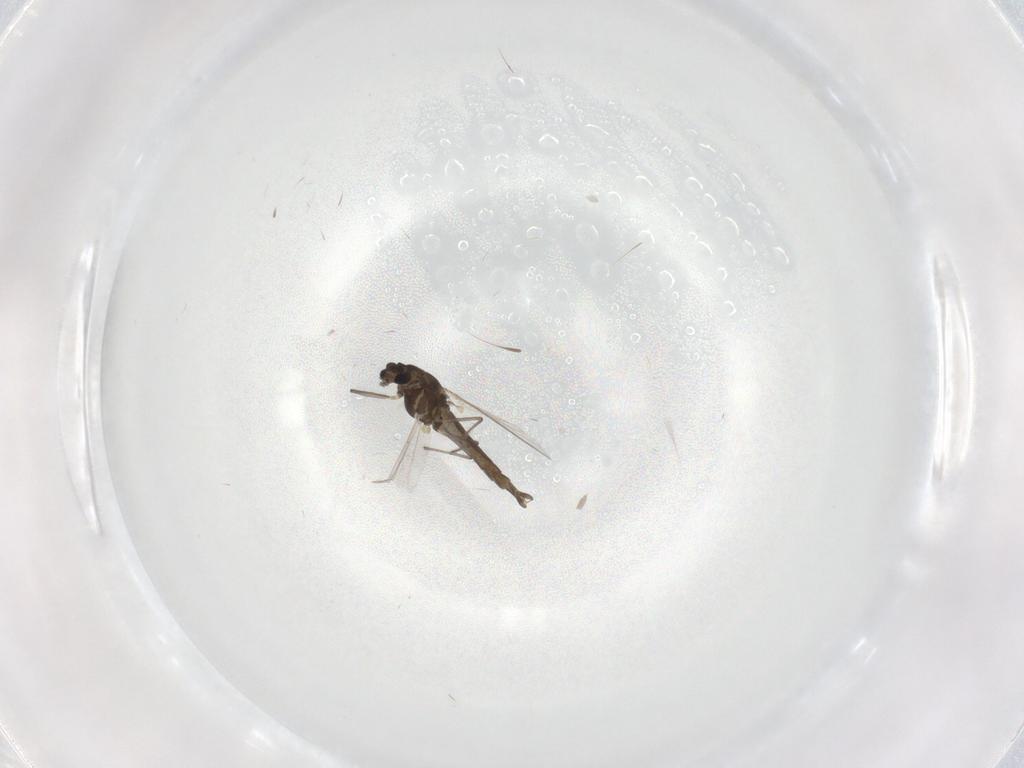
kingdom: Animalia
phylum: Arthropoda
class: Insecta
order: Diptera
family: Chironomidae
